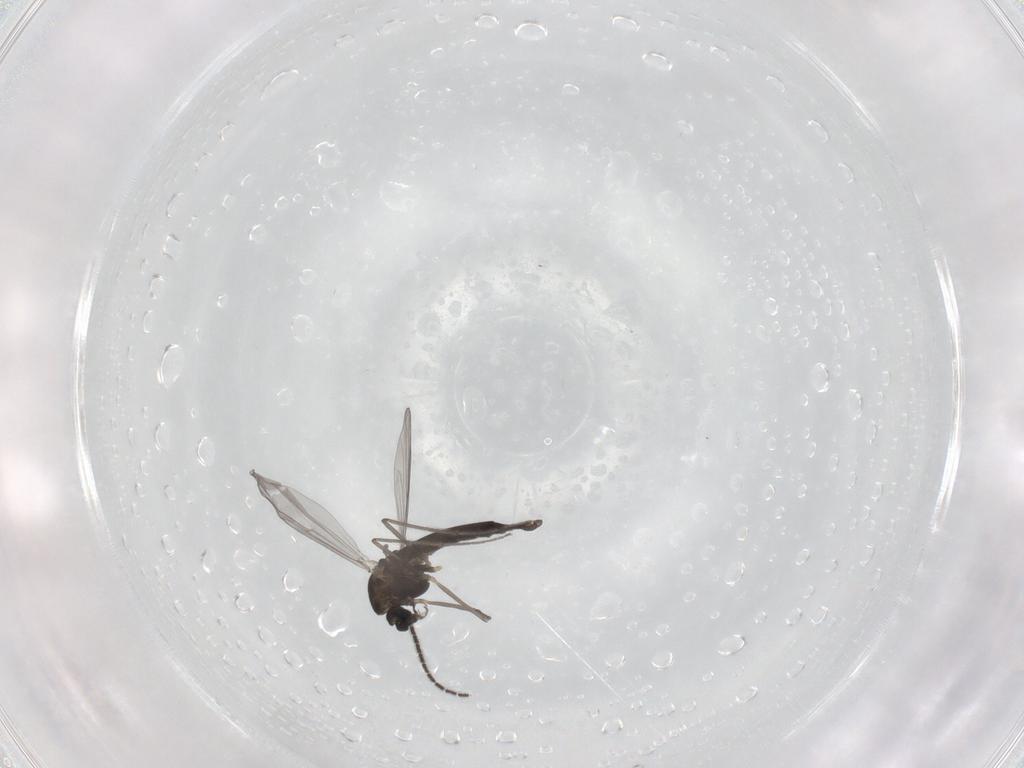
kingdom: Animalia
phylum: Arthropoda
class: Insecta
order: Diptera
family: Chironomidae
